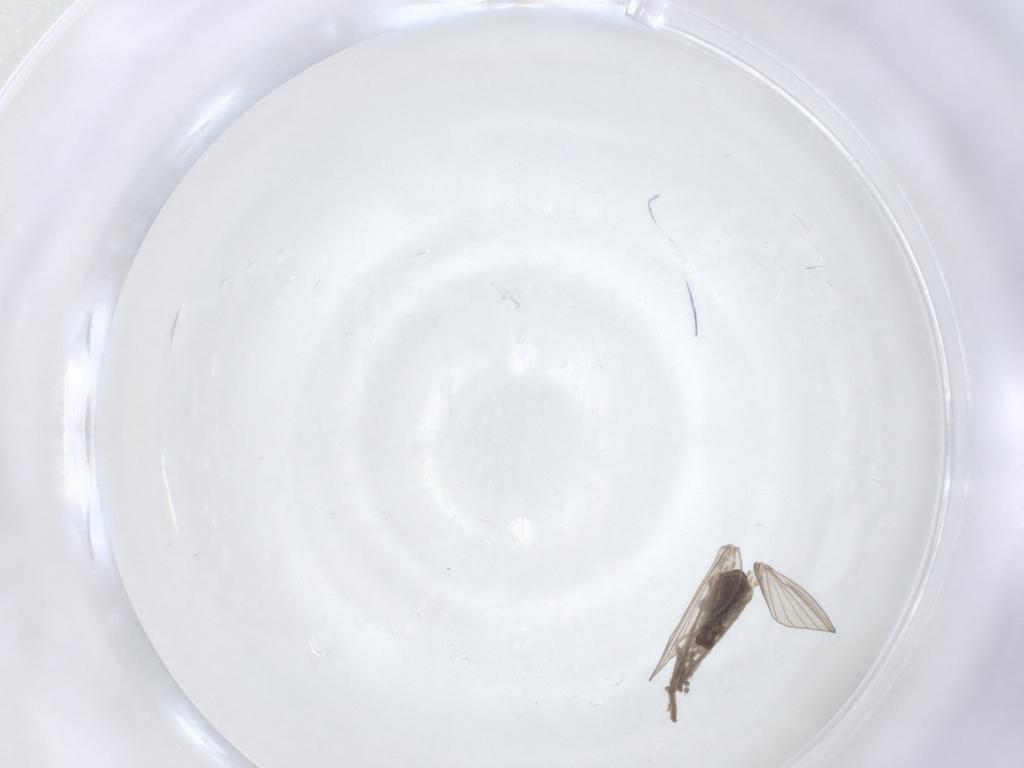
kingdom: Animalia
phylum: Arthropoda
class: Insecta
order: Diptera
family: Psychodidae
